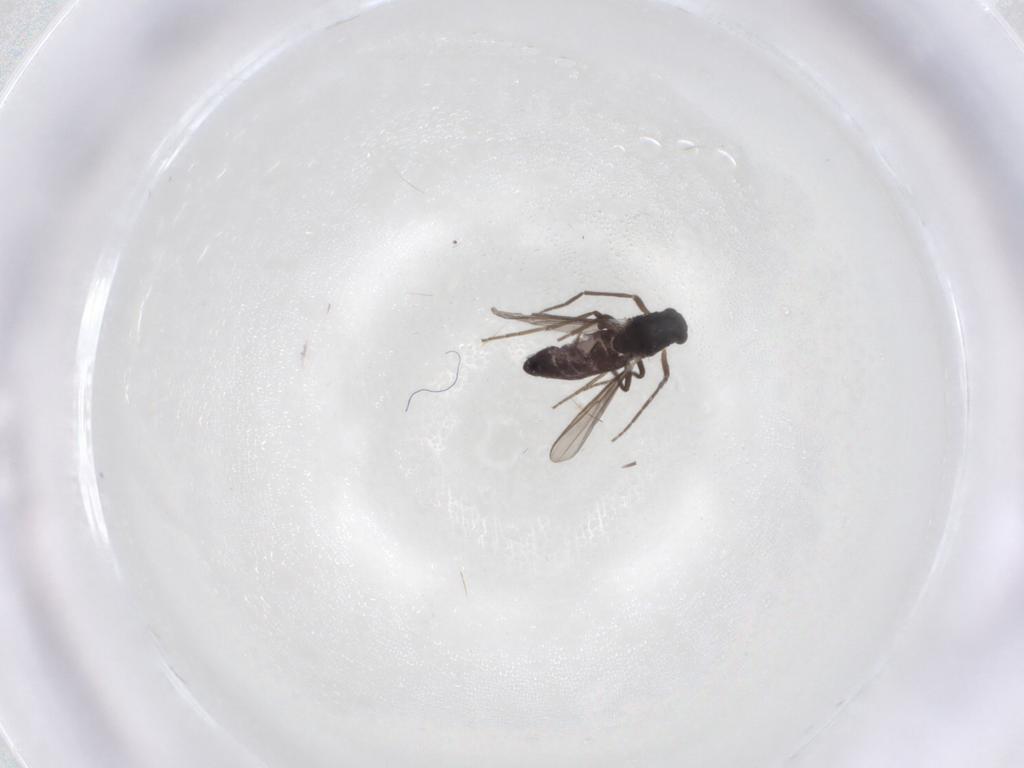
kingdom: Animalia
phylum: Arthropoda
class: Insecta
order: Diptera
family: Chironomidae
